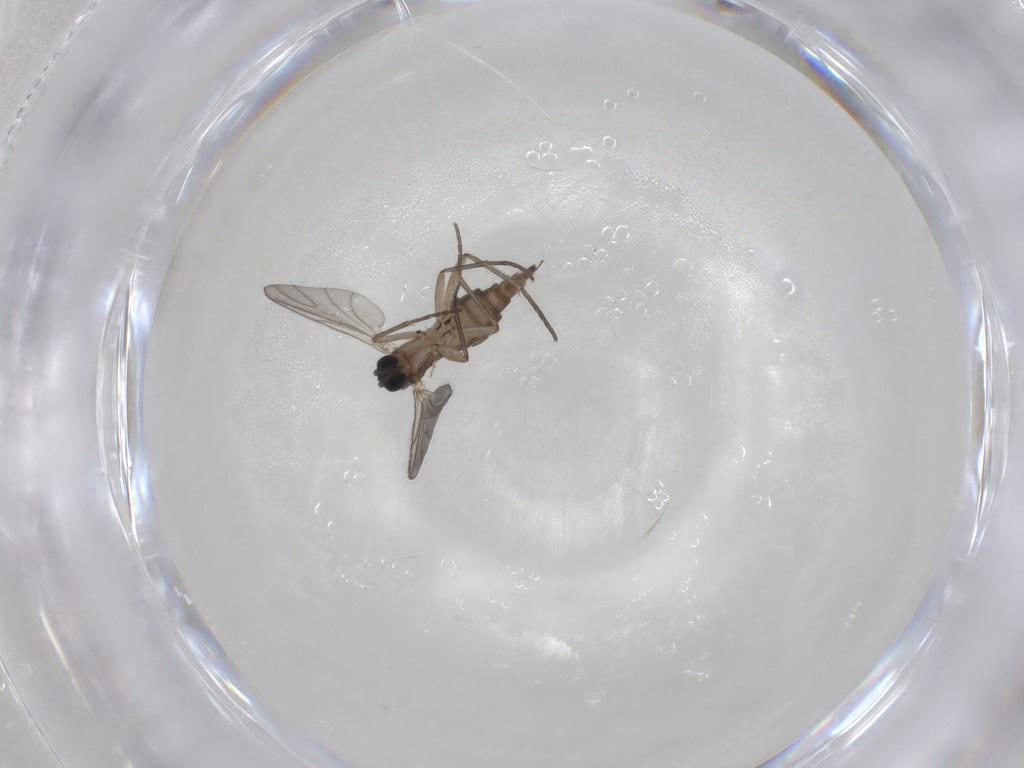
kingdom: Animalia
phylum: Arthropoda
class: Insecta
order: Diptera
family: Sciaridae
